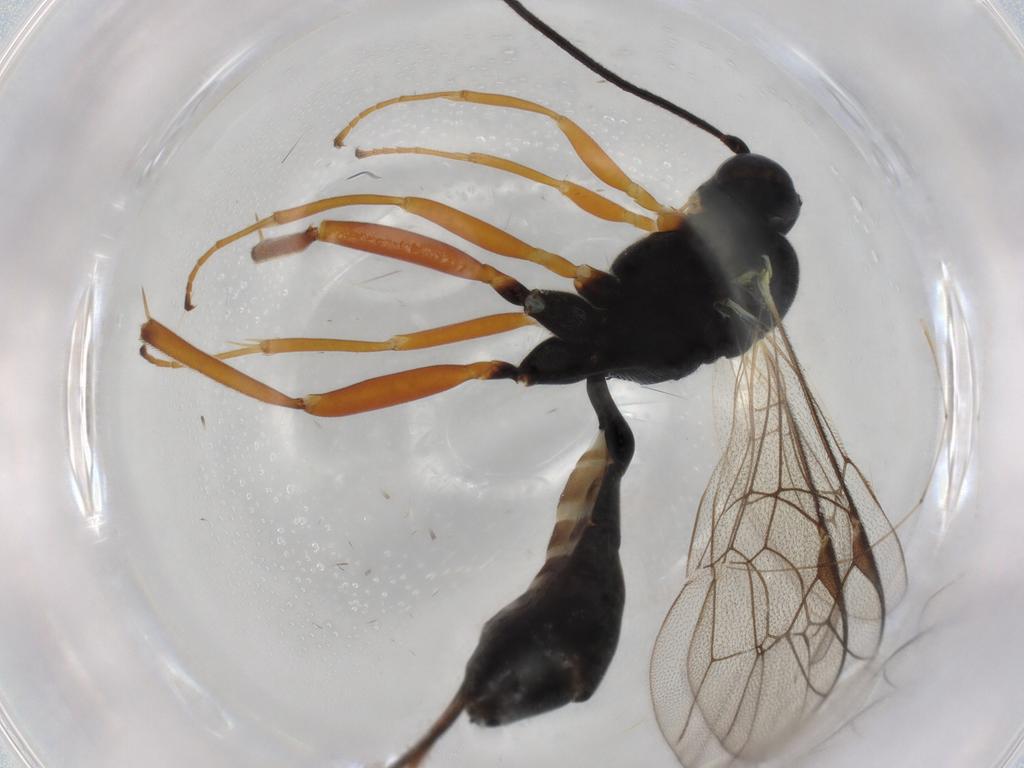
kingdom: Animalia
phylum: Arthropoda
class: Insecta
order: Hymenoptera
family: Ichneumonidae
